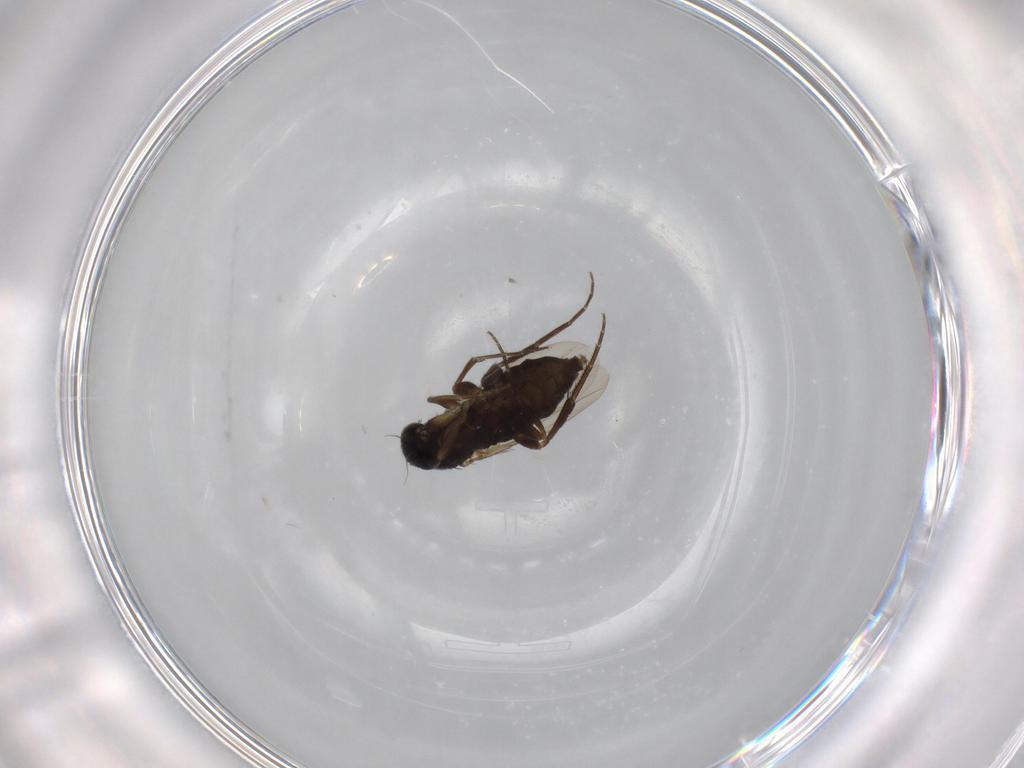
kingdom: Animalia
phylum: Arthropoda
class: Insecta
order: Diptera
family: Phoridae
